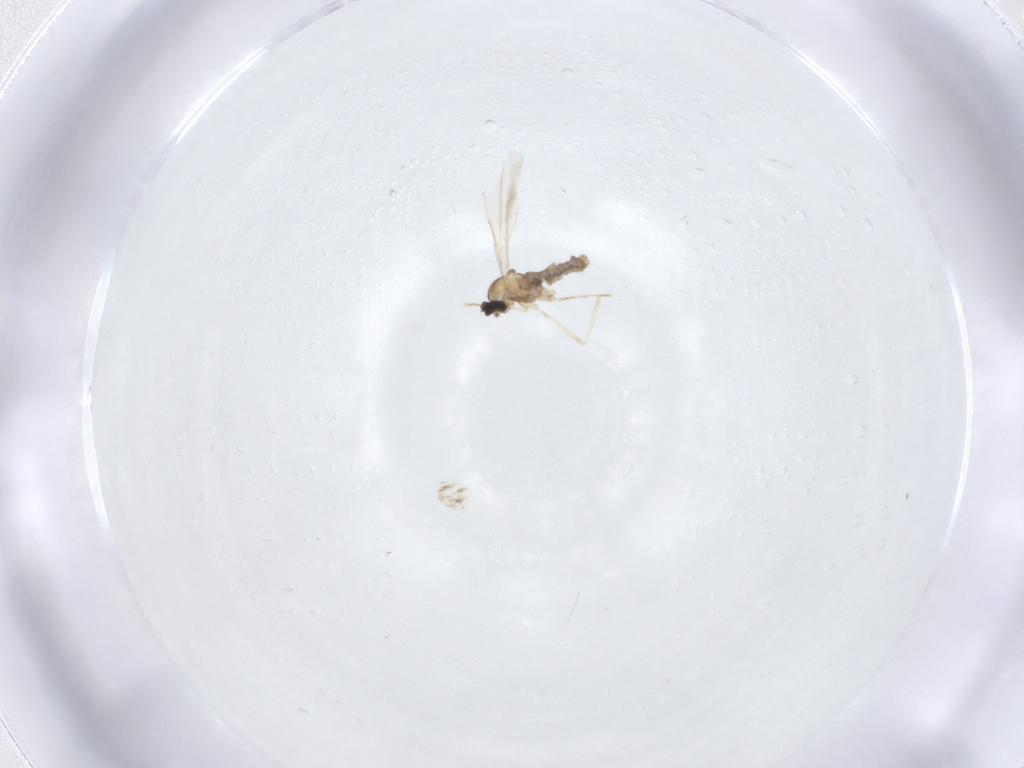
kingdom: Animalia
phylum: Arthropoda
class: Insecta
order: Diptera
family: Cecidomyiidae
